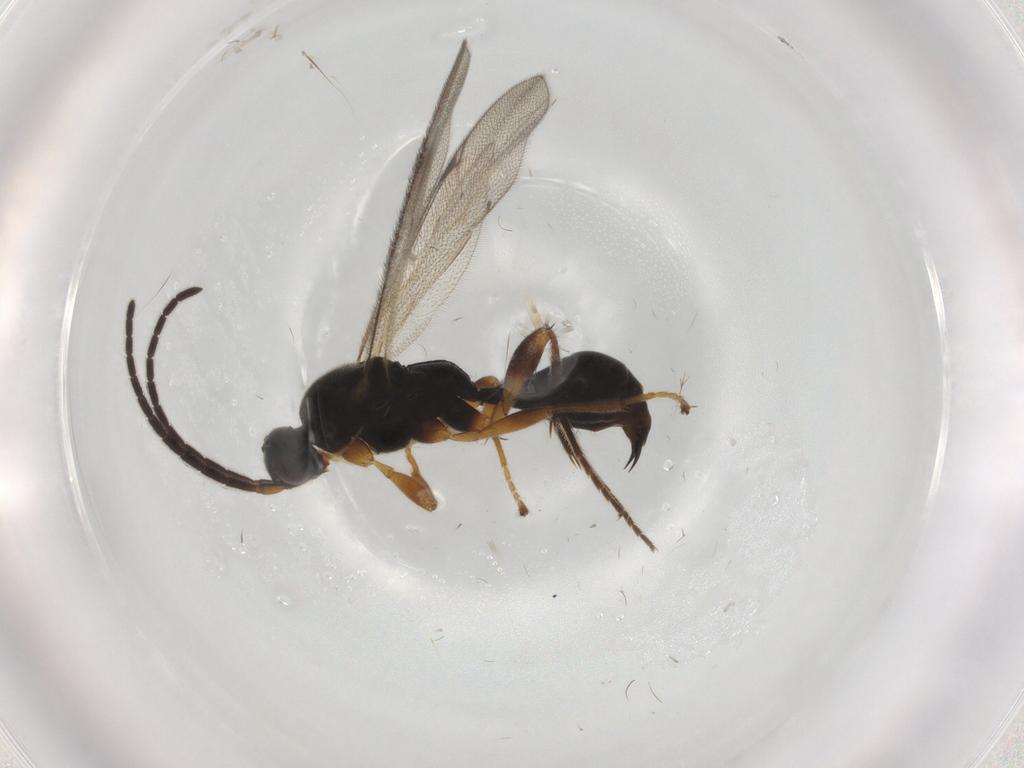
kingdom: Animalia
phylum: Arthropoda
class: Insecta
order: Hymenoptera
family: Proctotrupidae
